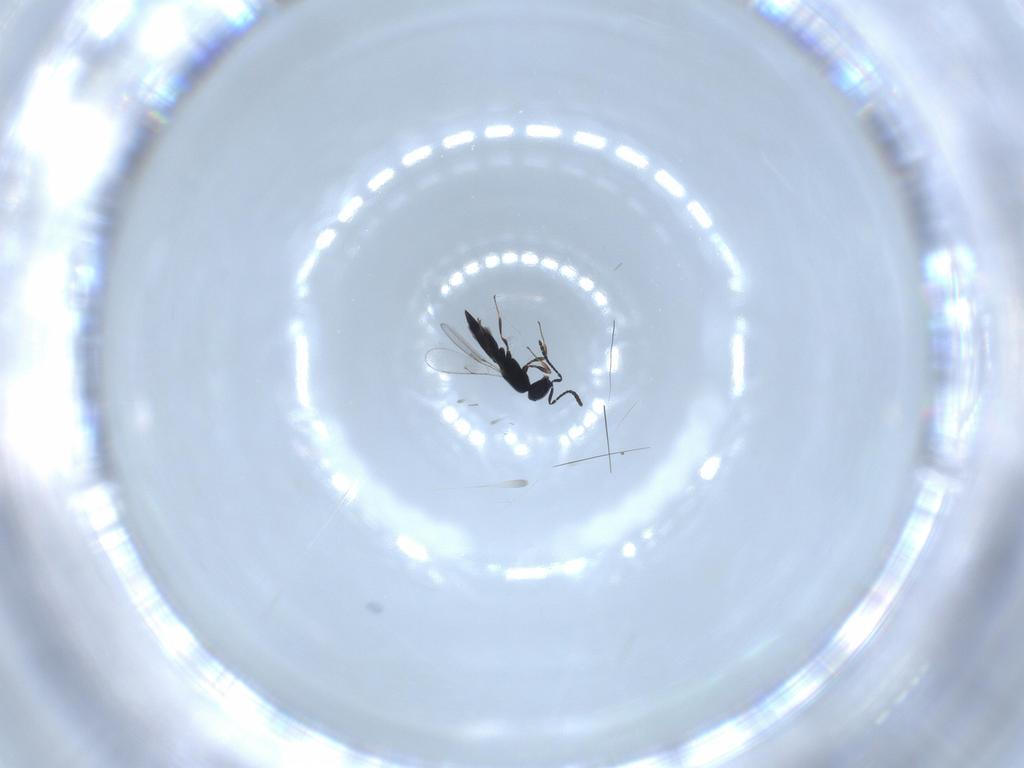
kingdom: Animalia
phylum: Arthropoda
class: Insecta
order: Hymenoptera
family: Scelionidae
